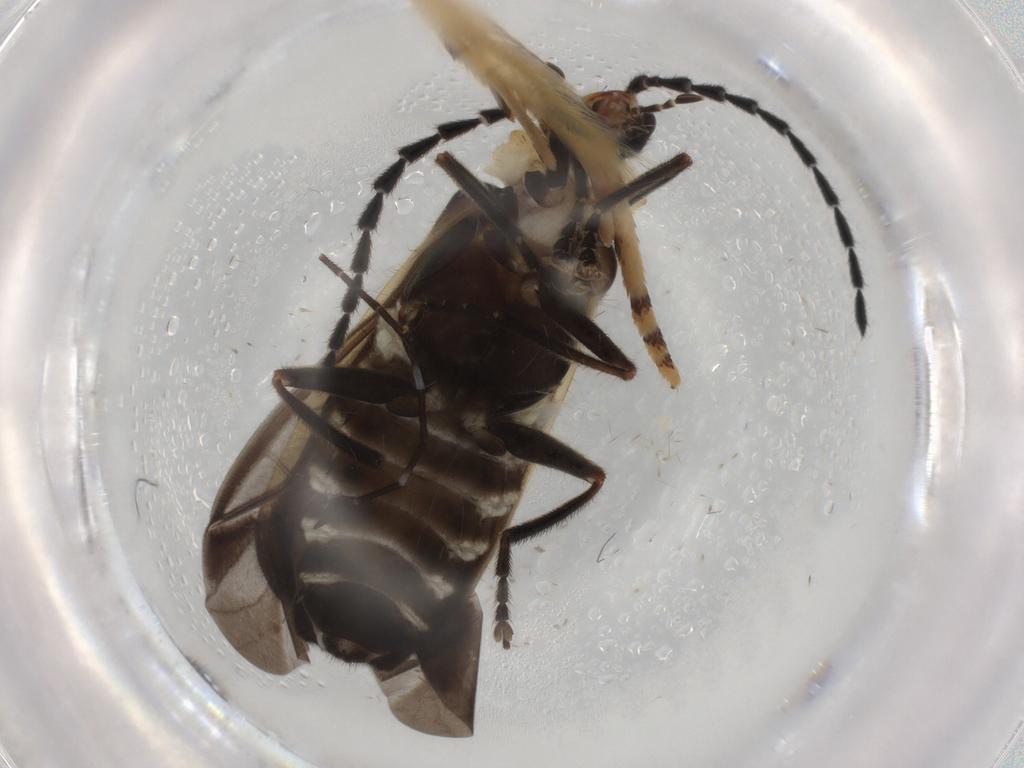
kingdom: Animalia
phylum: Arthropoda
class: Insecta
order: Coleoptera
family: Cantharidae
